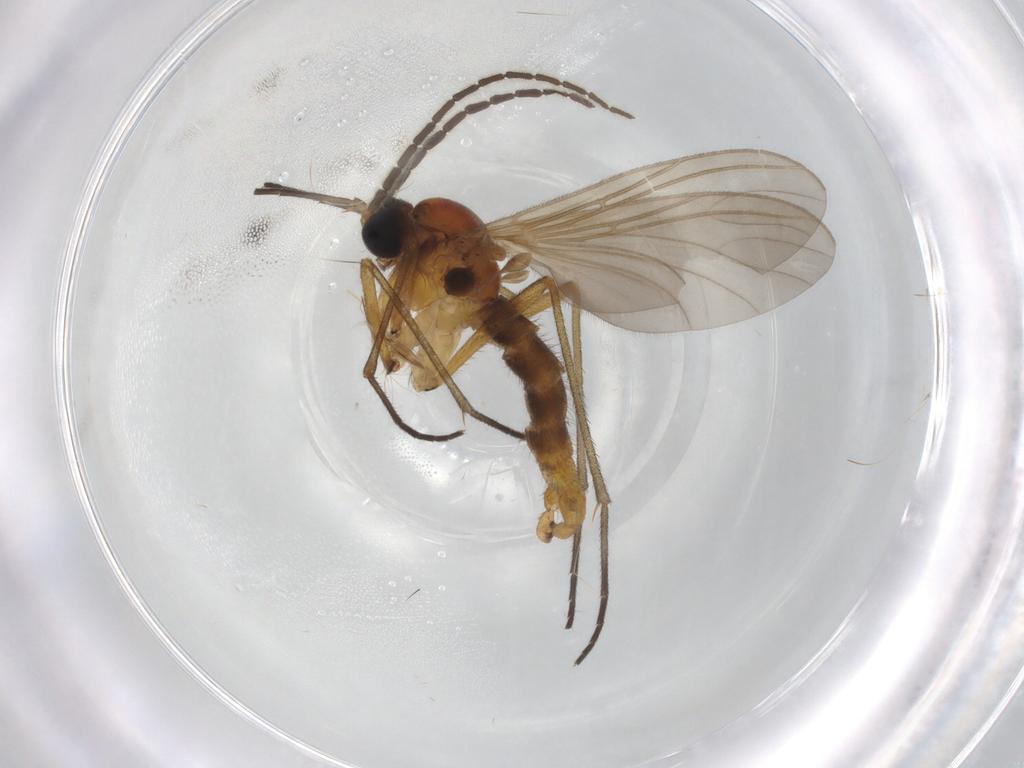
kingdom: Animalia
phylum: Arthropoda
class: Insecta
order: Diptera
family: Sciaridae
